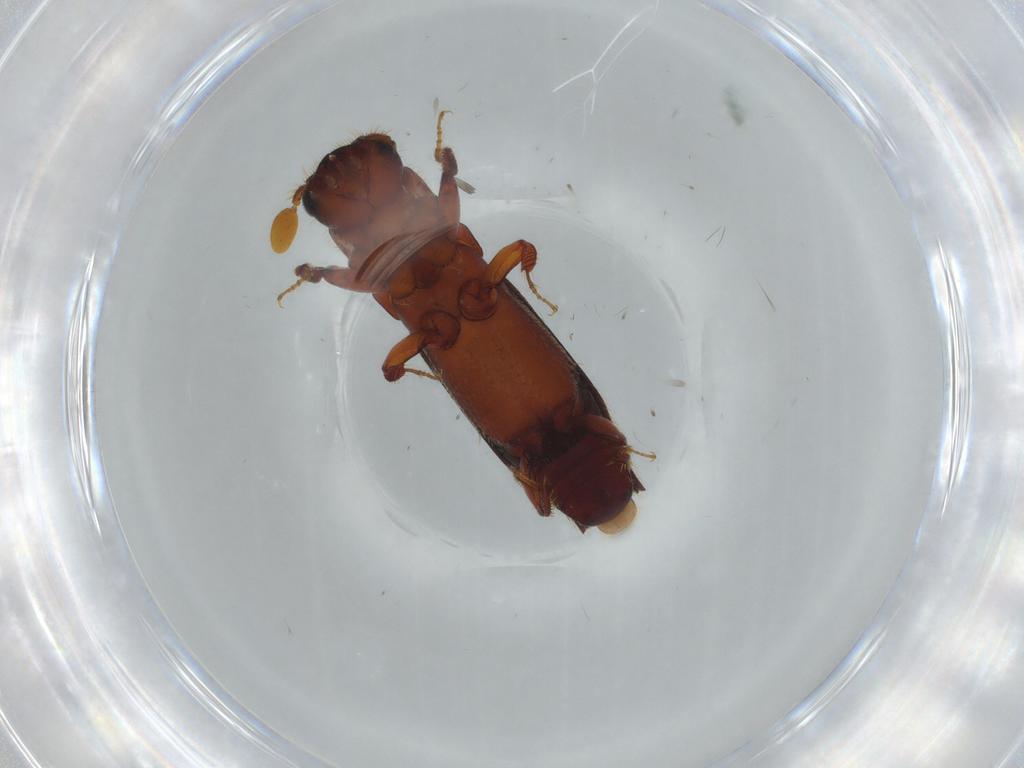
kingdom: Animalia
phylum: Arthropoda
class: Insecta
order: Coleoptera
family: Curculionidae
